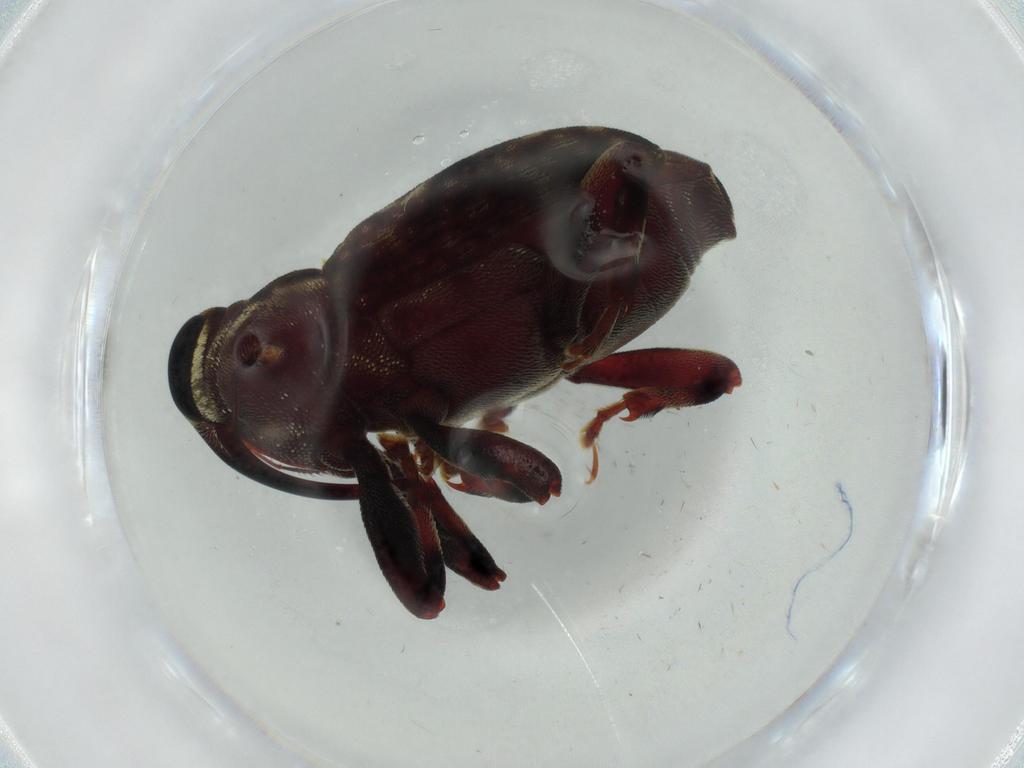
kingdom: Animalia
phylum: Arthropoda
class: Insecta
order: Coleoptera
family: Curculionidae
